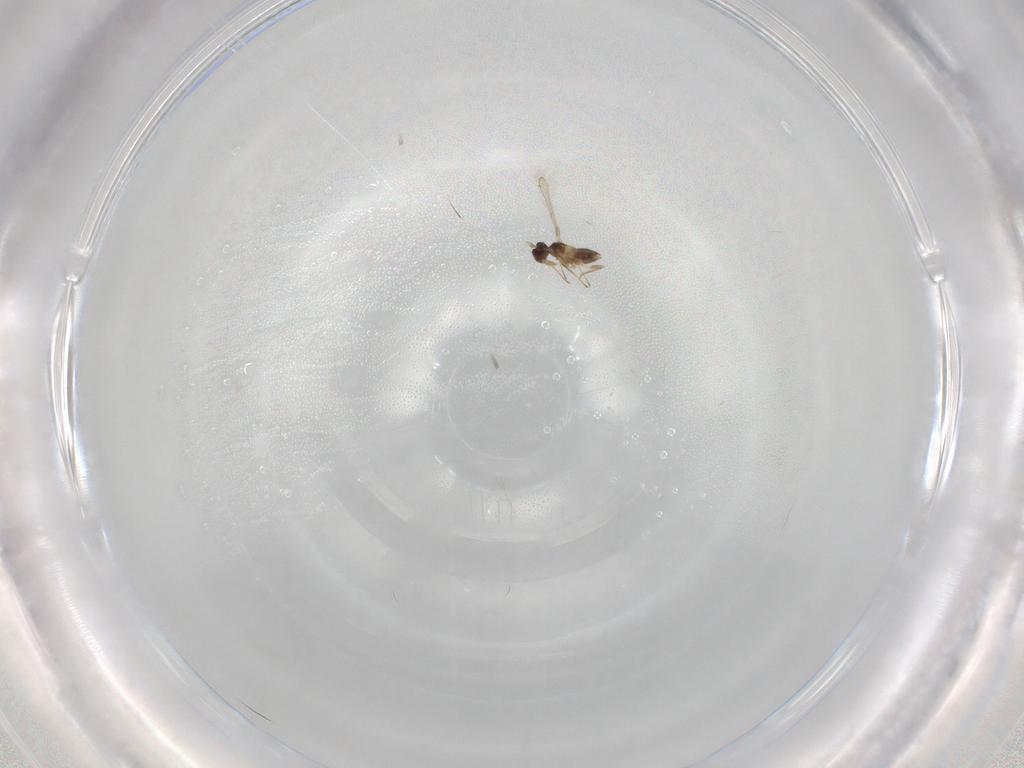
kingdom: Animalia
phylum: Arthropoda
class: Insecta
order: Hymenoptera
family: Mymaridae
